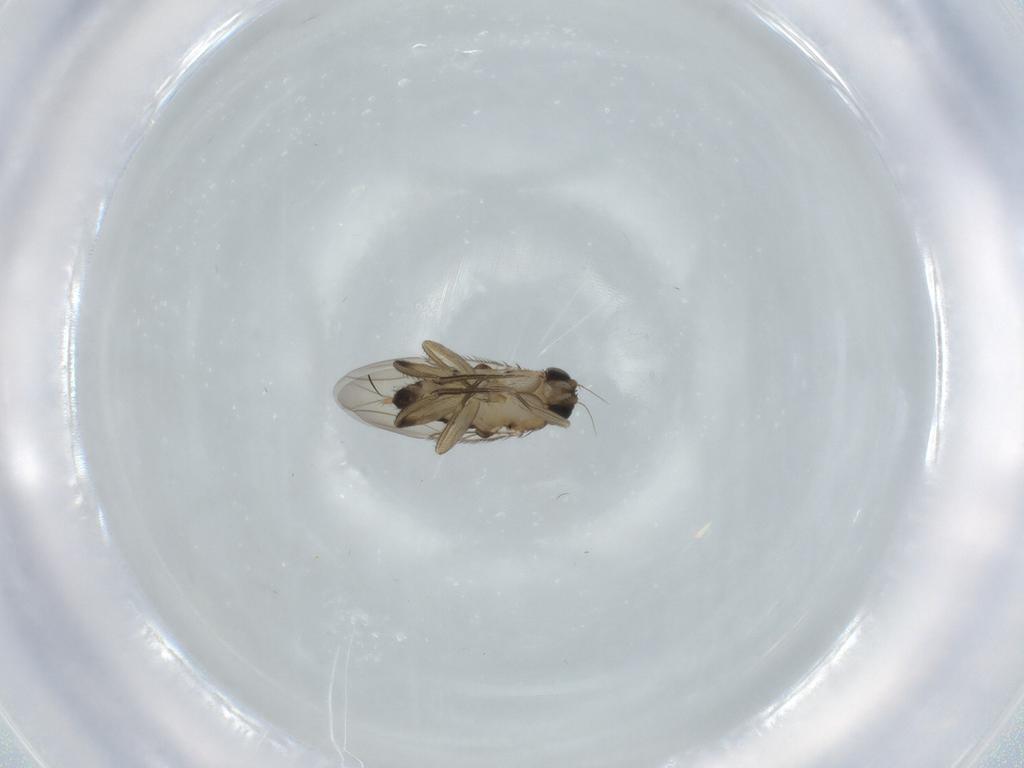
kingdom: Animalia
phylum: Arthropoda
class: Insecta
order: Diptera
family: Phoridae
